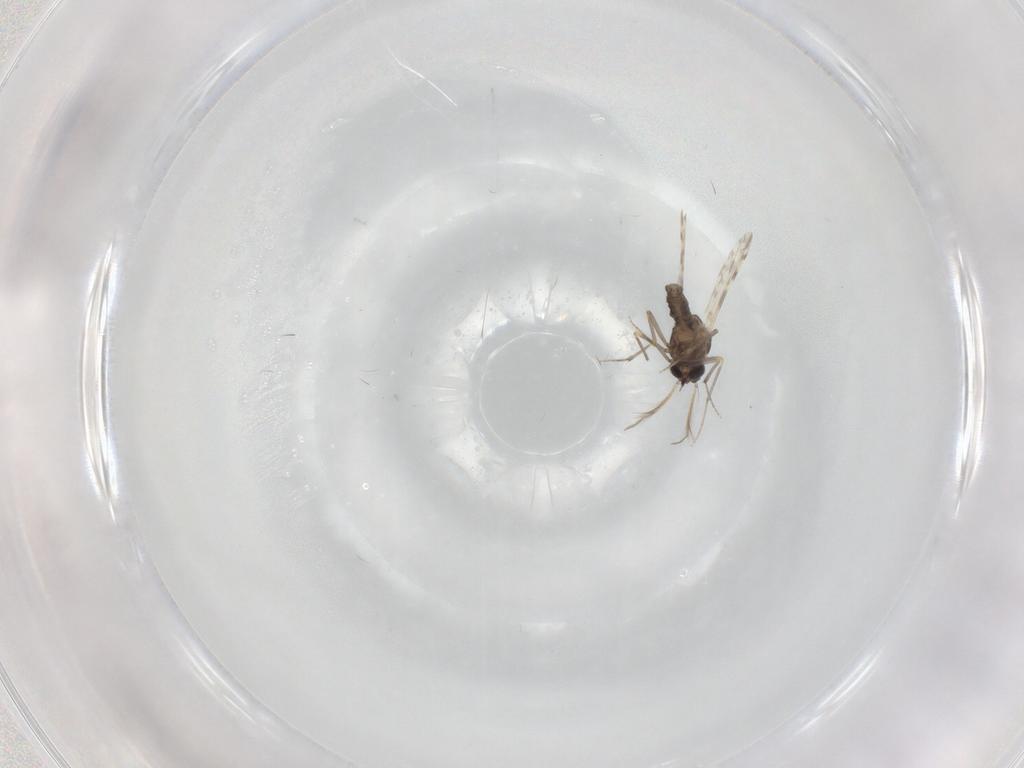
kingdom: Animalia
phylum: Arthropoda
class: Insecta
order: Diptera
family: Ceratopogonidae
